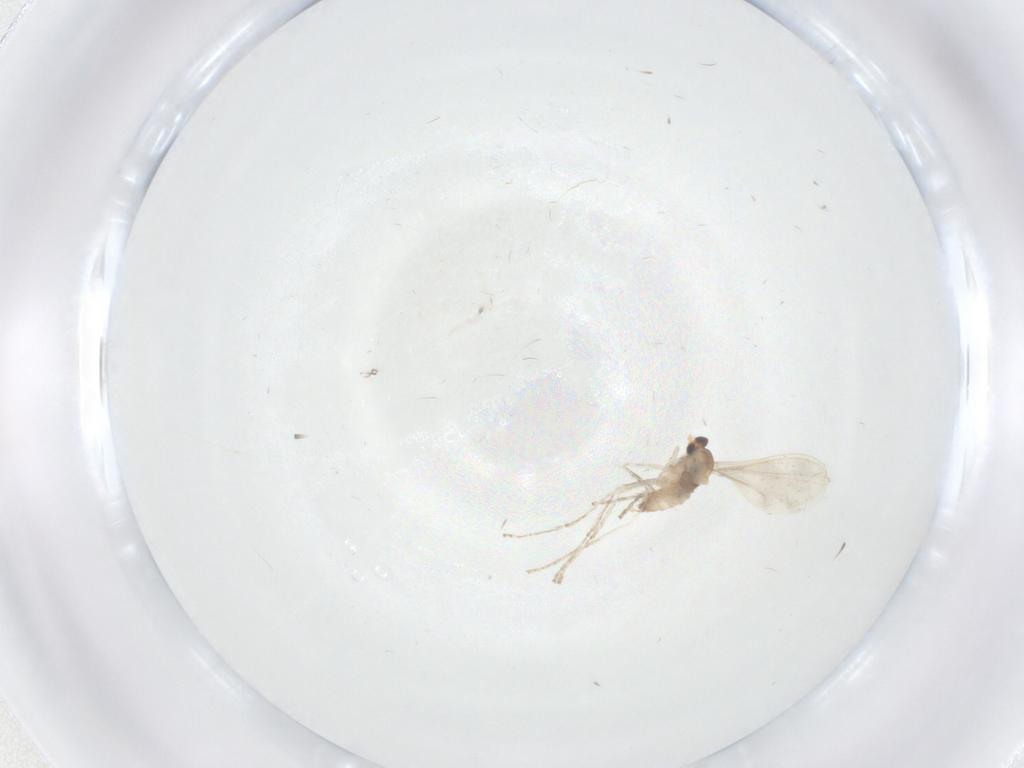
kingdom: Animalia
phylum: Arthropoda
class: Insecta
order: Diptera
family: Cecidomyiidae
